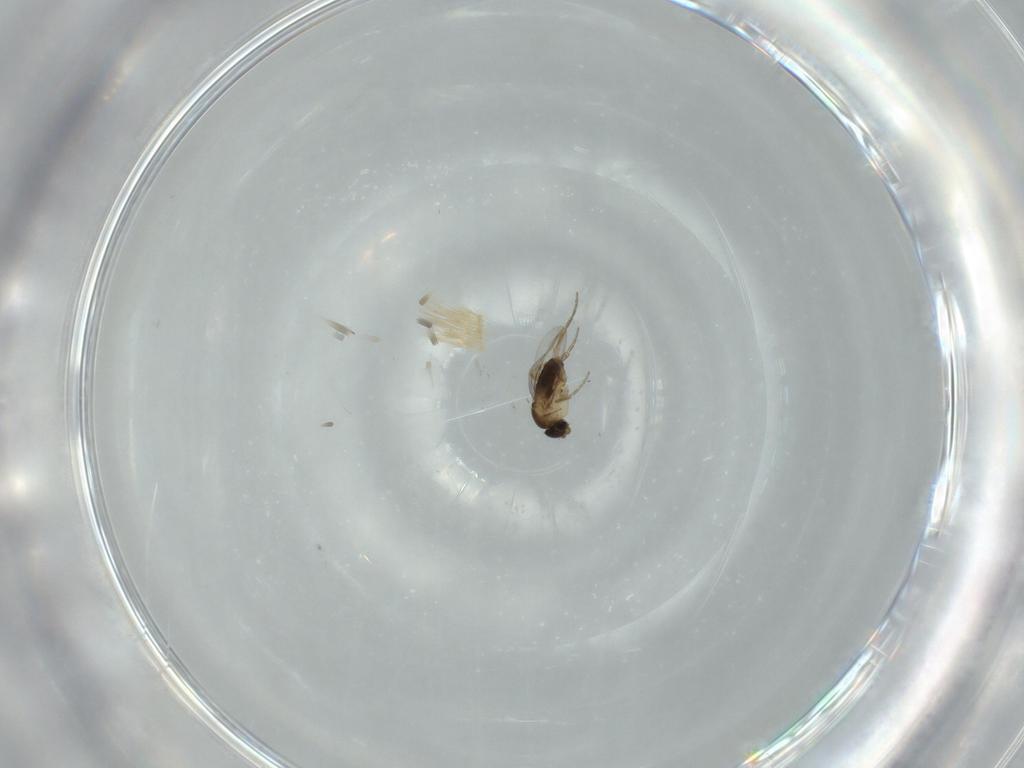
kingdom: Animalia
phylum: Arthropoda
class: Insecta
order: Diptera
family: Phoridae
